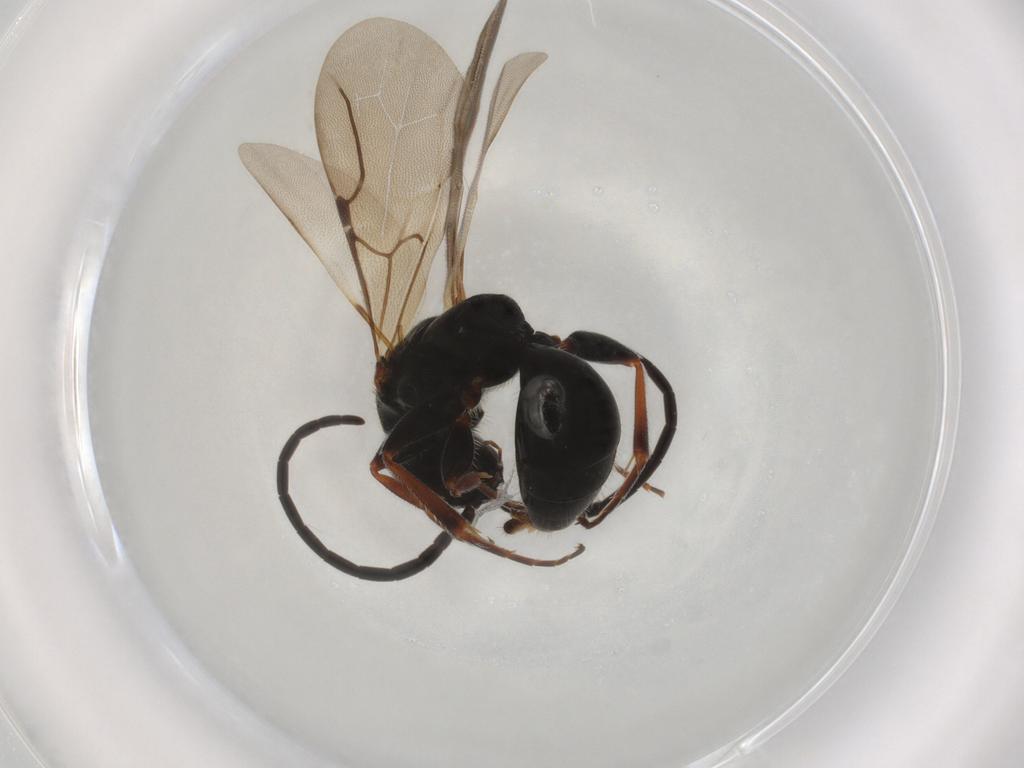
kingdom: Animalia
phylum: Arthropoda
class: Insecta
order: Hymenoptera
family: Bethylidae
